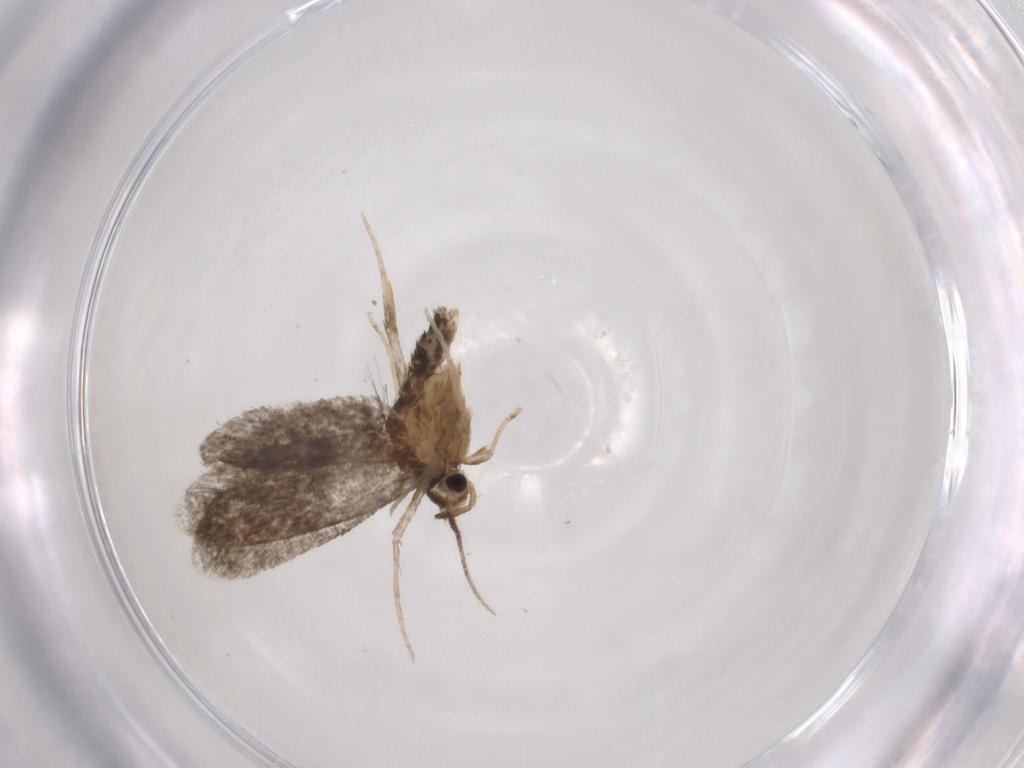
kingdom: Animalia
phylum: Arthropoda
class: Insecta
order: Lepidoptera
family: Psychidae
